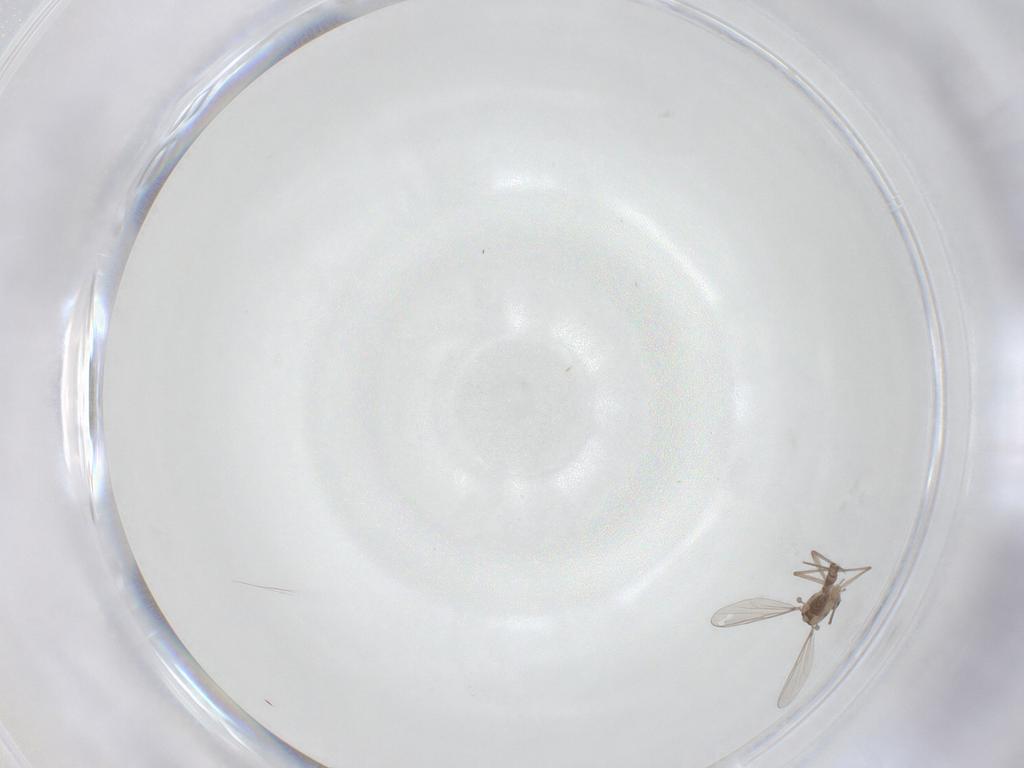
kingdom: Animalia
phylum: Arthropoda
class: Insecta
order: Diptera
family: Chironomidae
